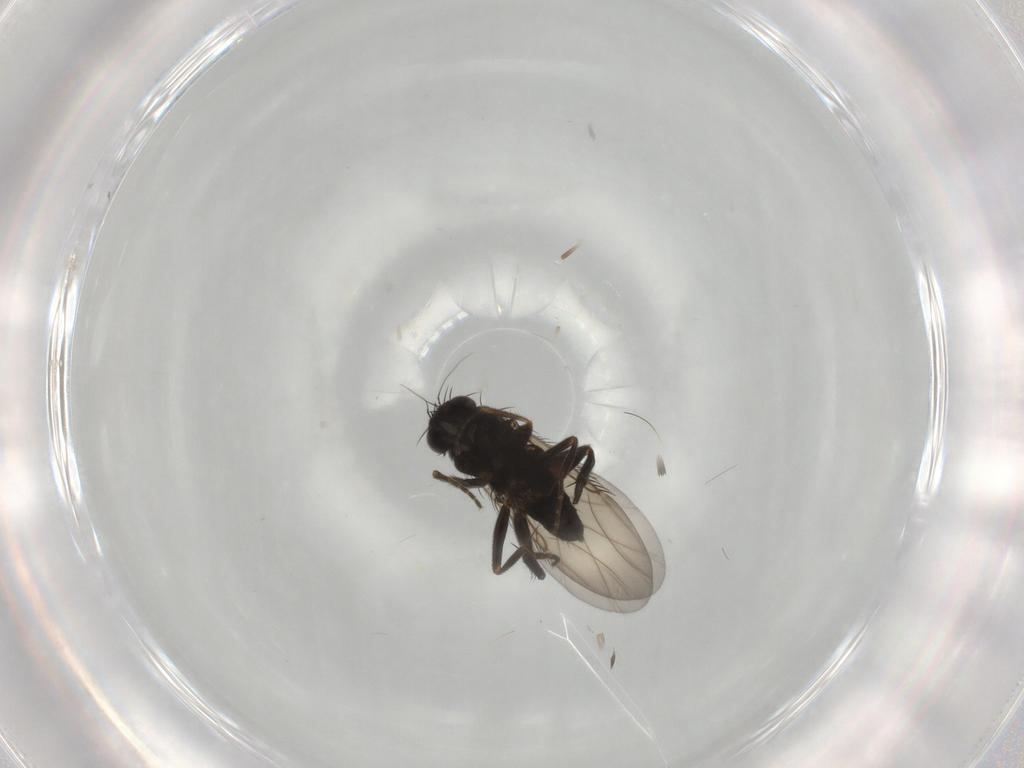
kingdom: Animalia
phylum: Arthropoda
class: Insecta
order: Diptera
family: Phoridae
